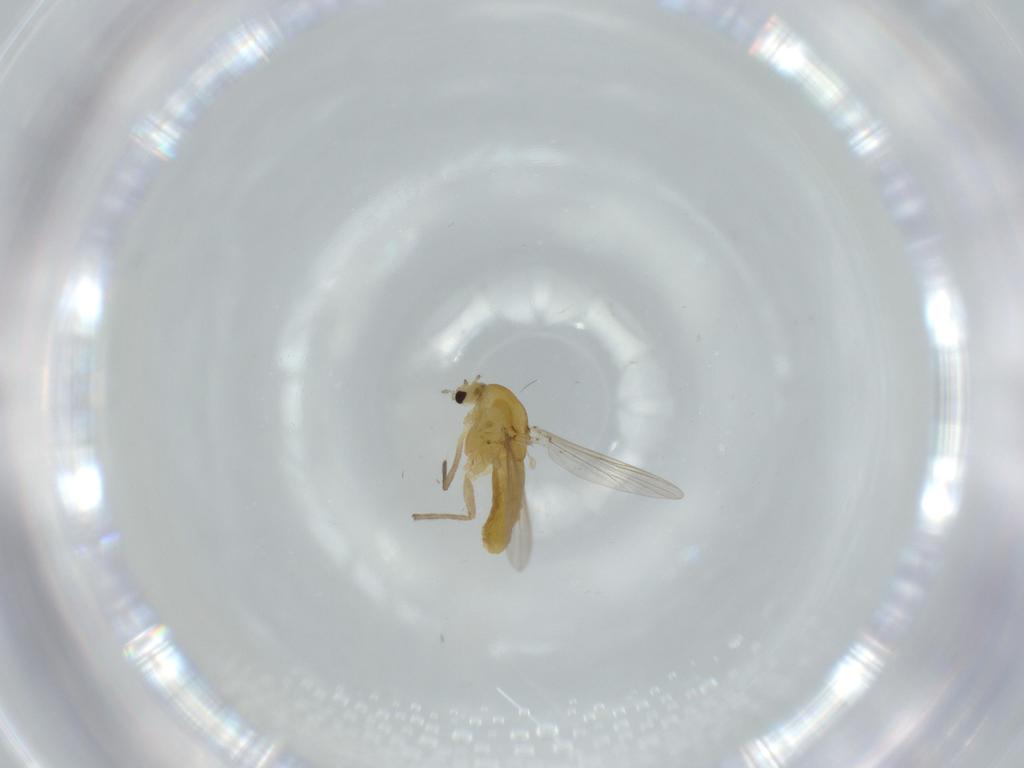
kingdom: Animalia
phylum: Arthropoda
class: Insecta
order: Diptera
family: Chironomidae
